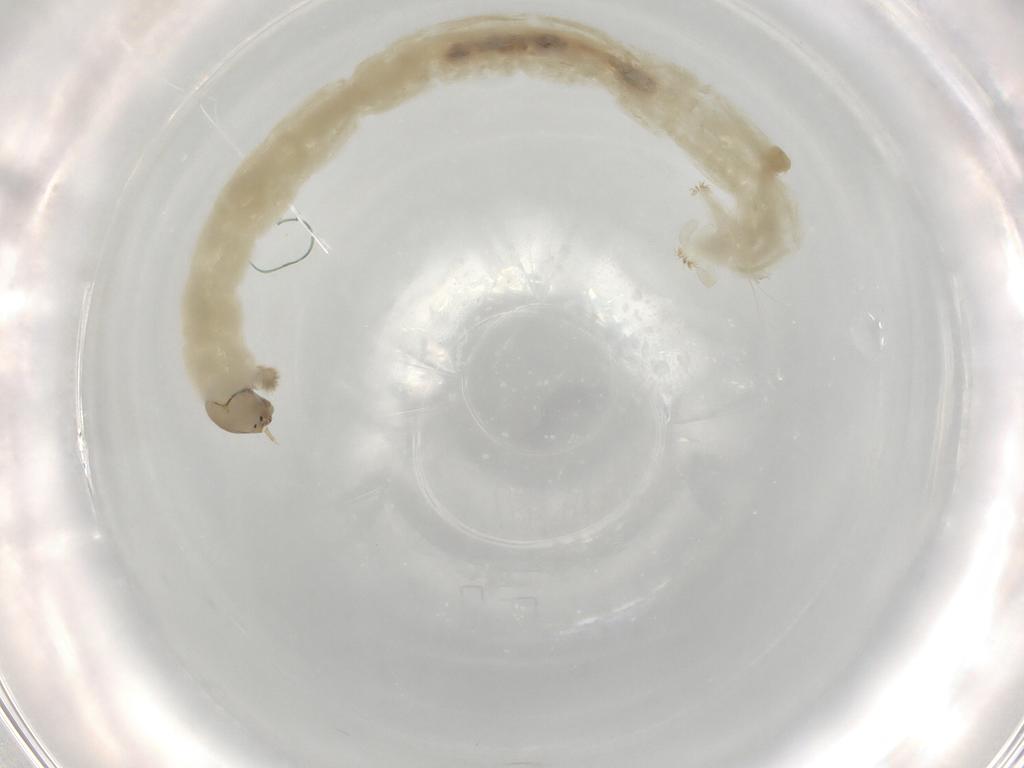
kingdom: Animalia
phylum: Arthropoda
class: Insecta
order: Diptera
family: Chironomidae
